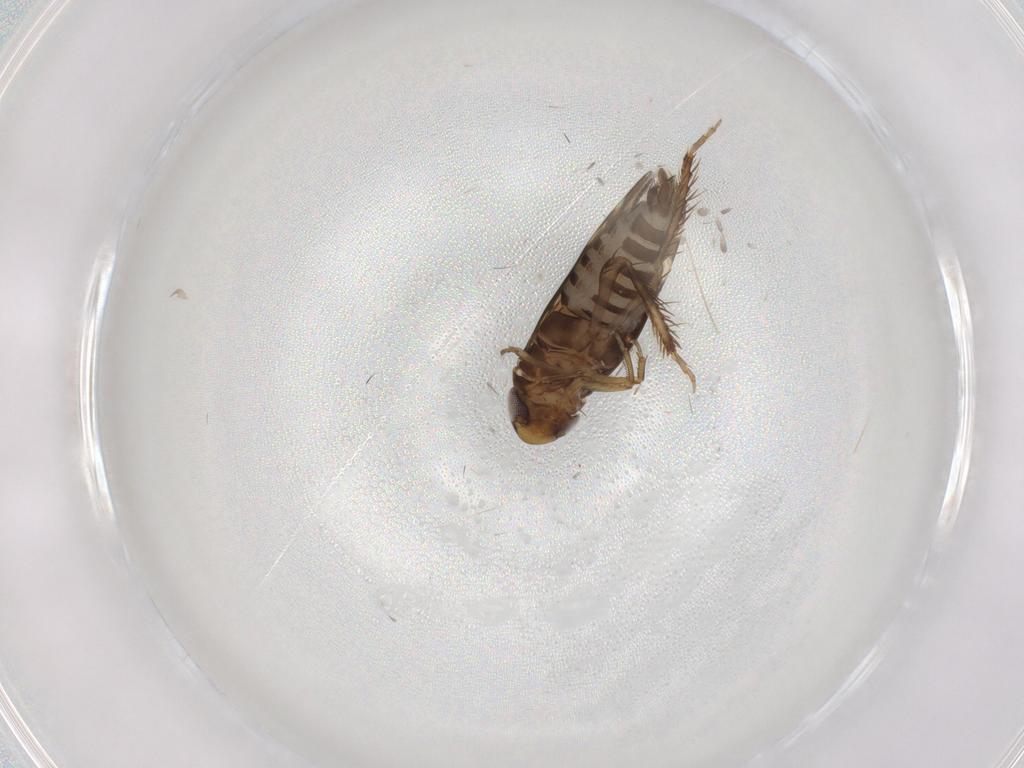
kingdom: Animalia
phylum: Arthropoda
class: Insecta
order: Hemiptera
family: Cicadellidae
